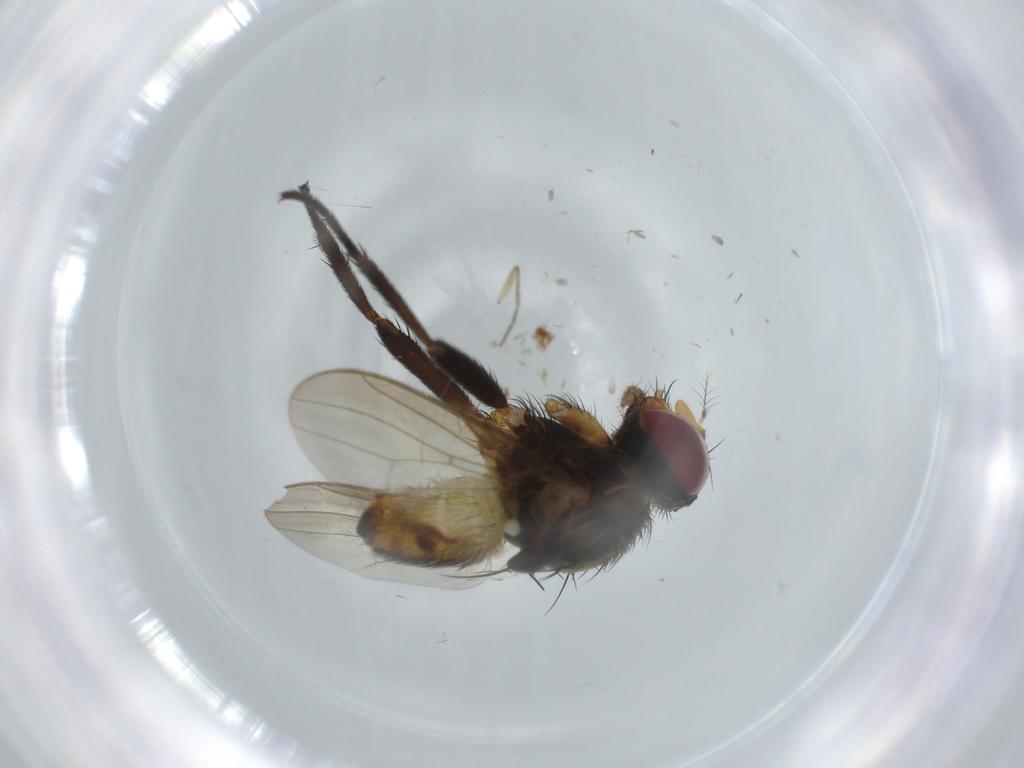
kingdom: Animalia
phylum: Arthropoda
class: Insecta
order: Diptera
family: Anthomyiidae
